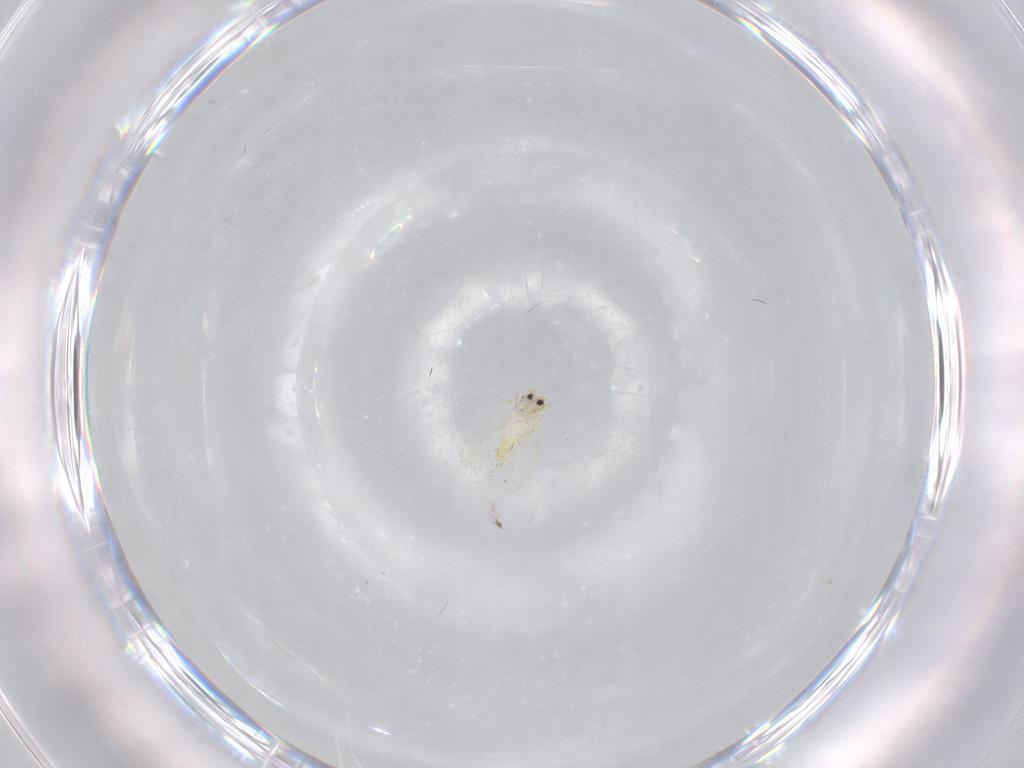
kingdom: Animalia
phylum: Arthropoda
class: Insecta
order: Hemiptera
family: Aleyrodidae
